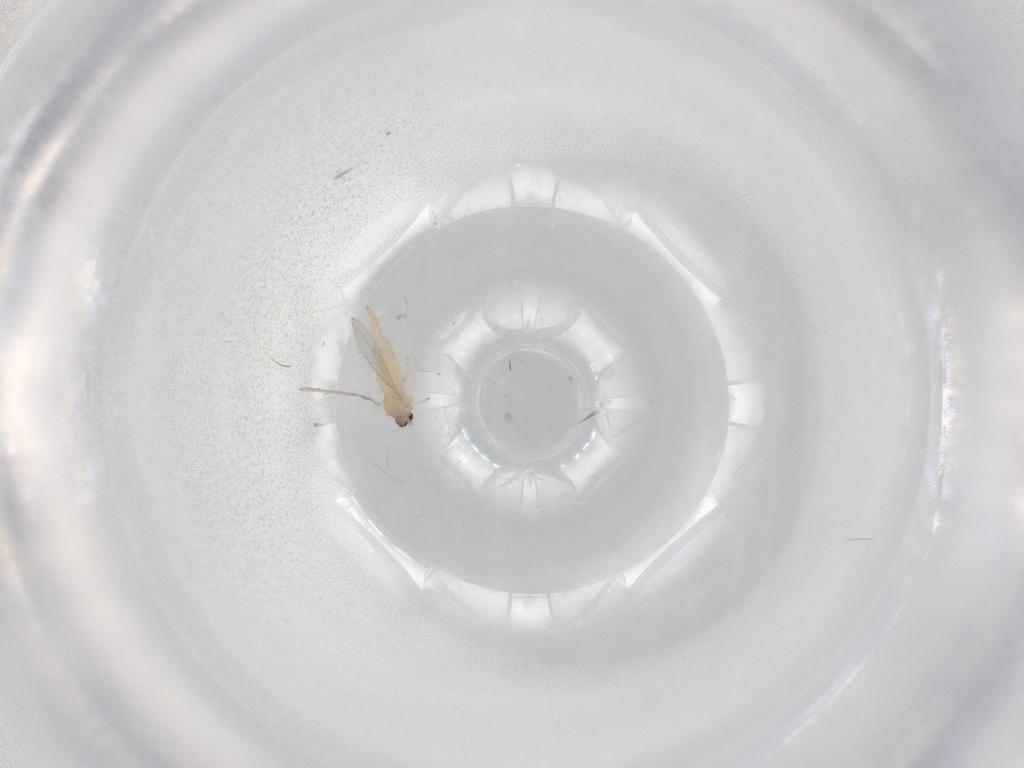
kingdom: Animalia
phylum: Arthropoda
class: Insecta
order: Diptera
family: Cecidomyiidae
